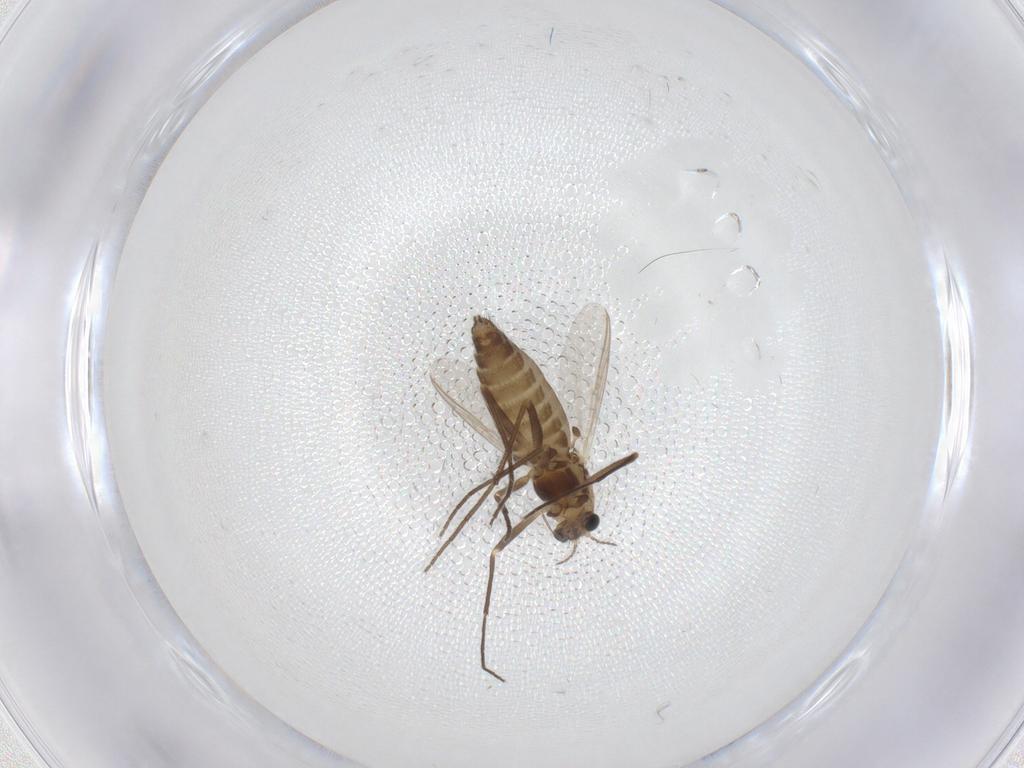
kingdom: Animalia
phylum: Arthropoda
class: Insecta
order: Diptera
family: Chironomidae
